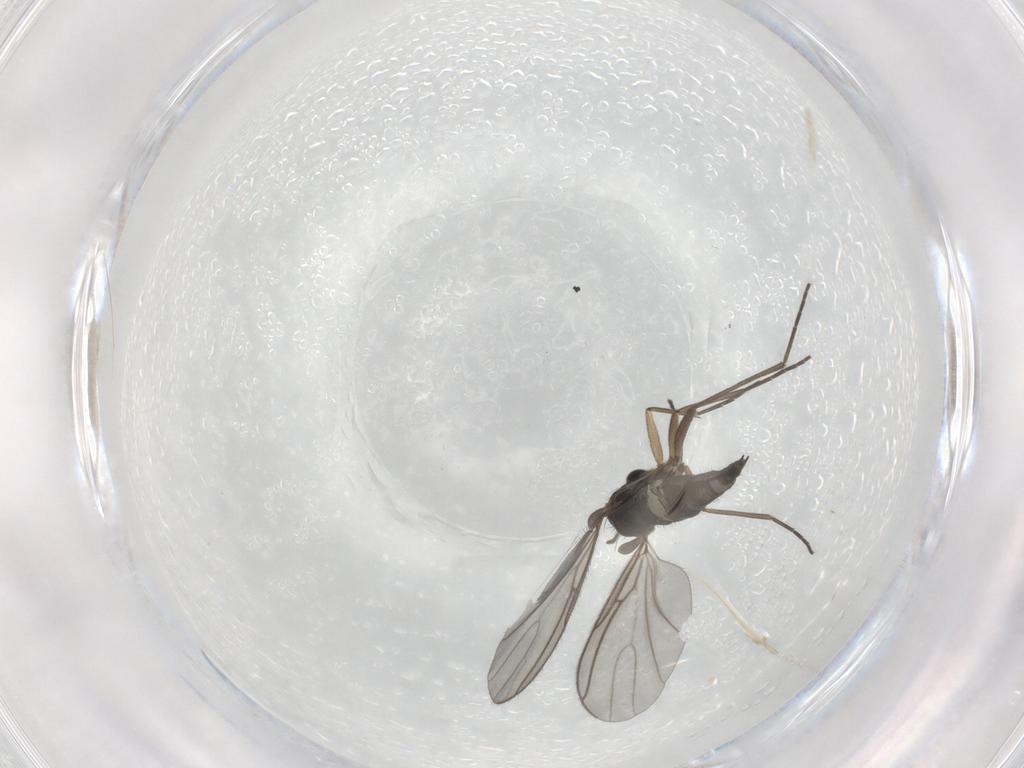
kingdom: Animalia
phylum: Arthropoda
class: Insecta
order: Diptera
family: Sciaridae
